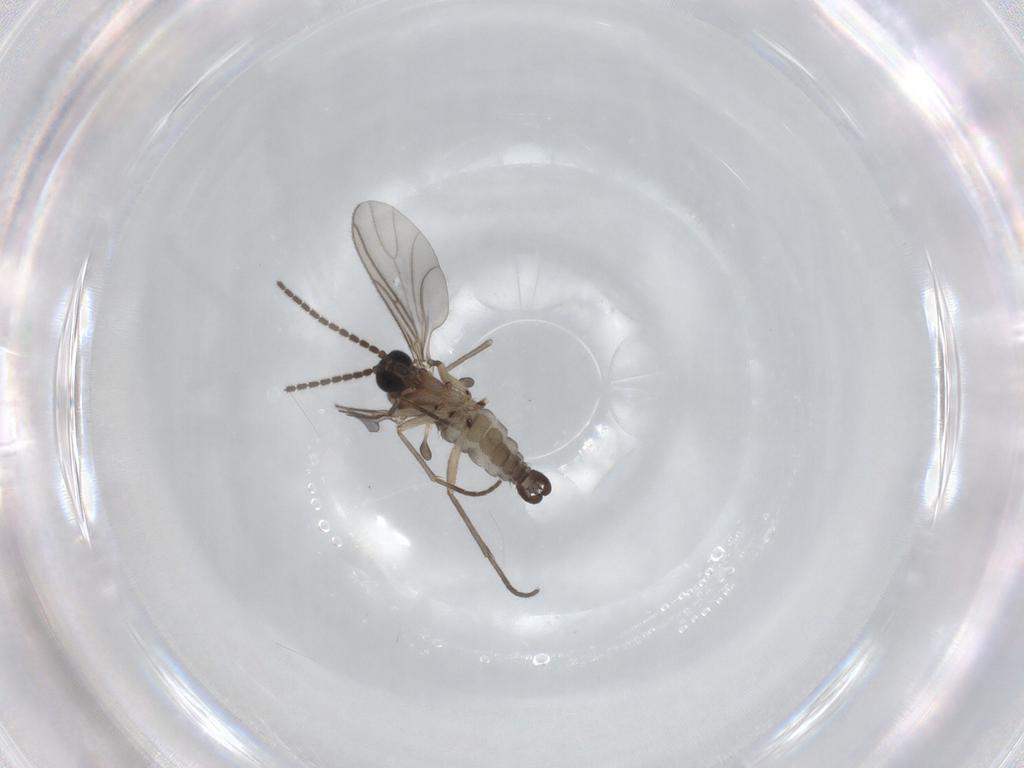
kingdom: Animalia
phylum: Arthropoda
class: Insecta
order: Diptera
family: Sciaridae
